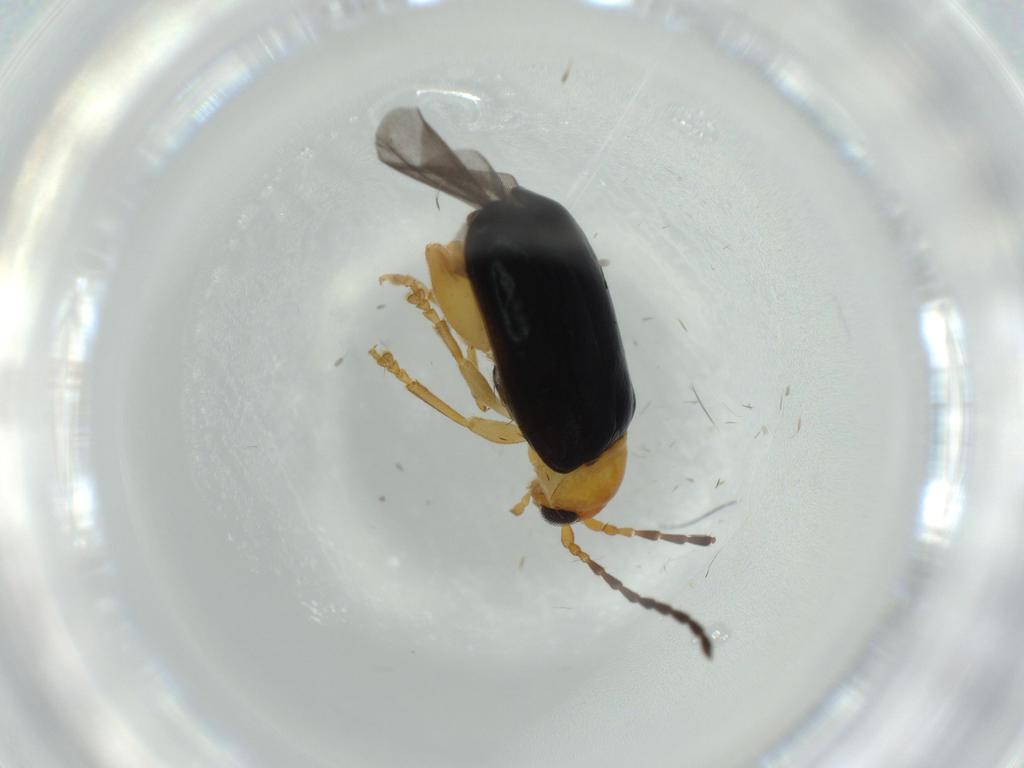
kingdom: Animalia
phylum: Arthropoda
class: Insecta
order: Coleoptera
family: Chrysomelidae
